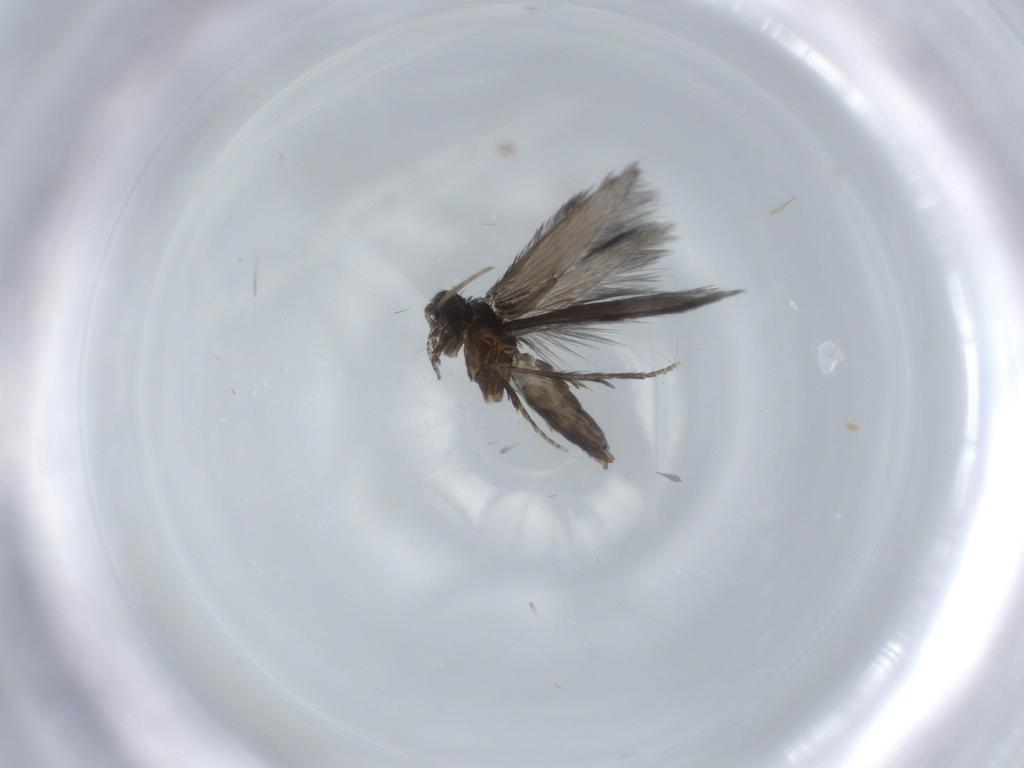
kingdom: Animalia
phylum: Arthropoda
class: Insecta
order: Trichoptera
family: Hydroptilidae
